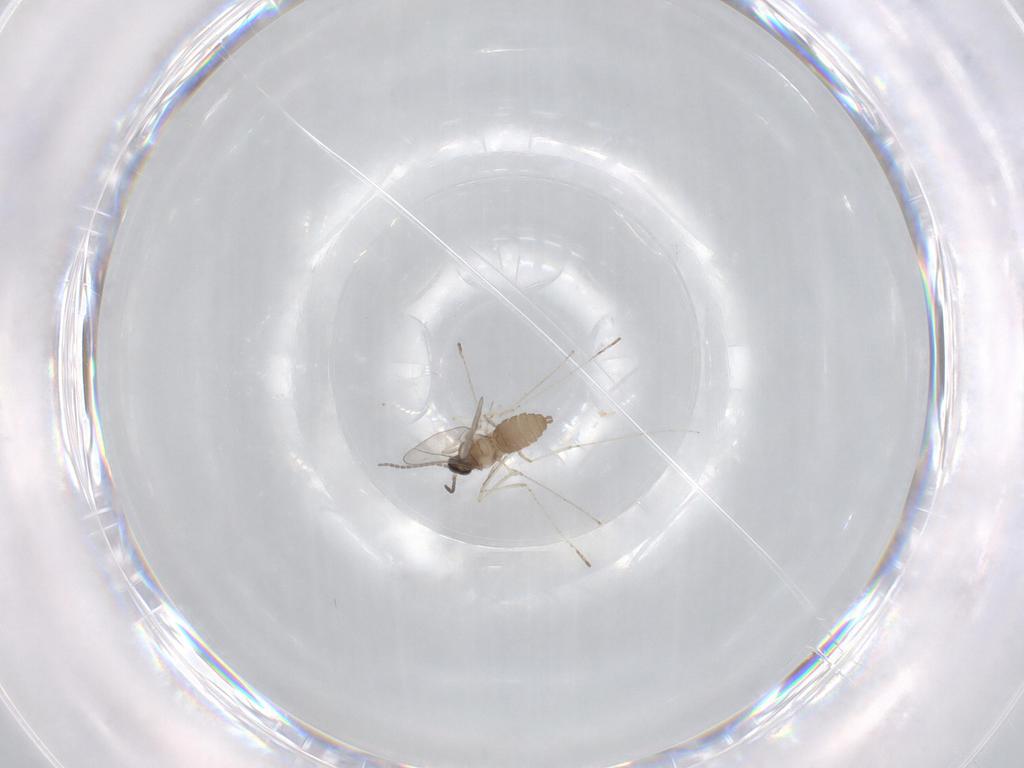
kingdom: Animalia
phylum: Arthropoda
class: Insecta
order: Diptera
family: Cecidomyiidae
